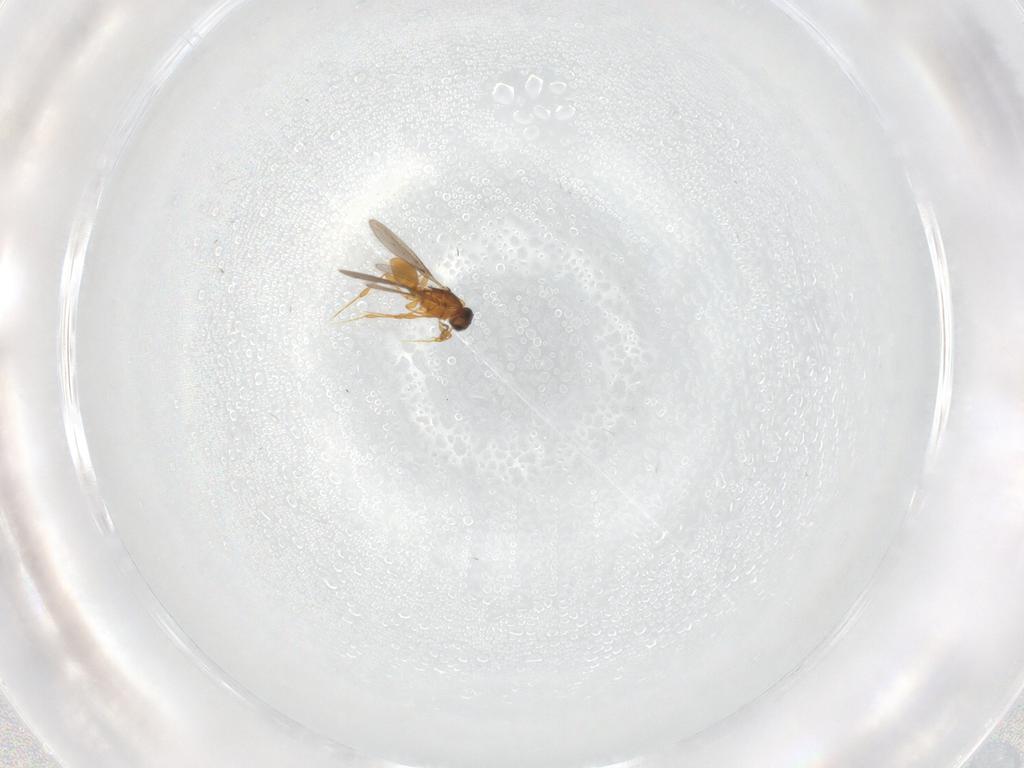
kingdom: Animalia
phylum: Arthropoda
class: Insecta
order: Hymenoptera
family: Platygastridae
